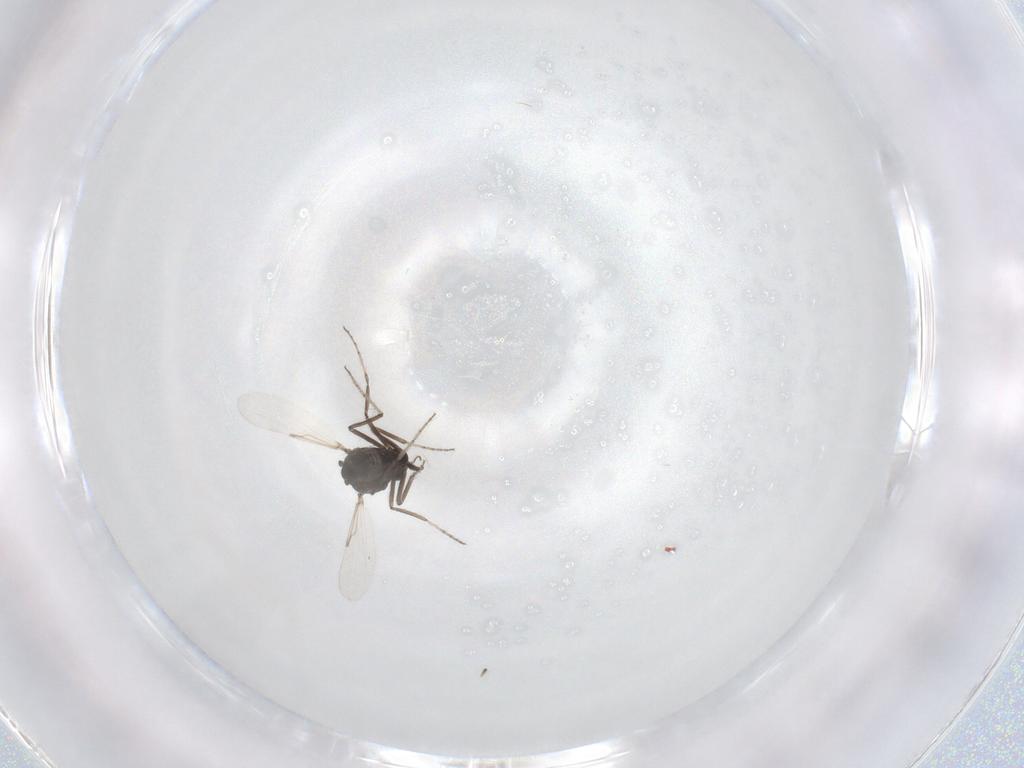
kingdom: Animalia
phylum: Arthropoda
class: Insecta
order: Diptera
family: Ceratopogonidae
